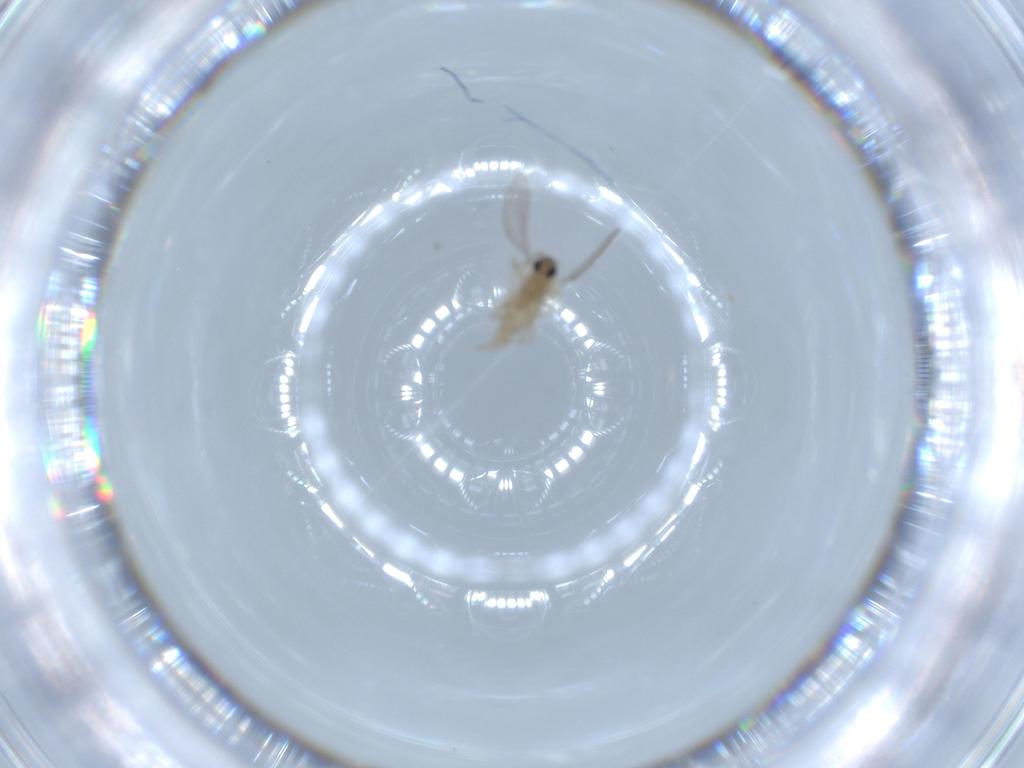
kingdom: Animalia
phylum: Arthropoda
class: Insecta
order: Diptera
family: Cecidomyiidae
